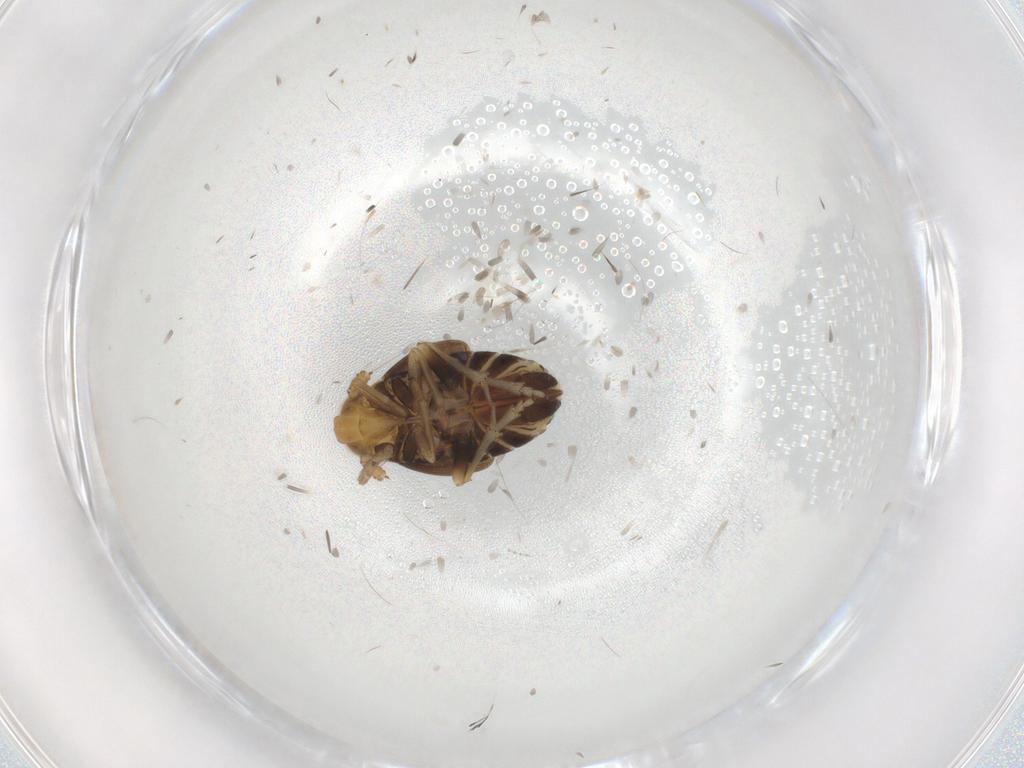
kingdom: Animalia
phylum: Arthropoda
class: Insecta
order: Hemiptera
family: Delphacidae
